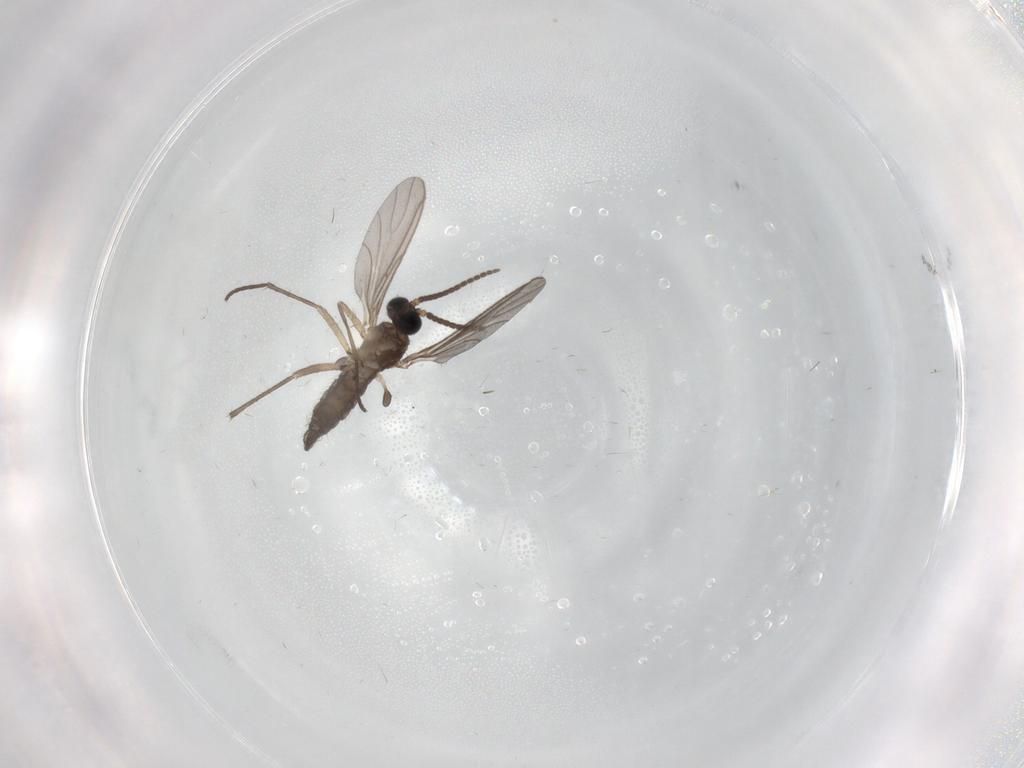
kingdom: Animalia
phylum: Arthropoda
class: Insecta
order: Diptera
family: Sciaridae
